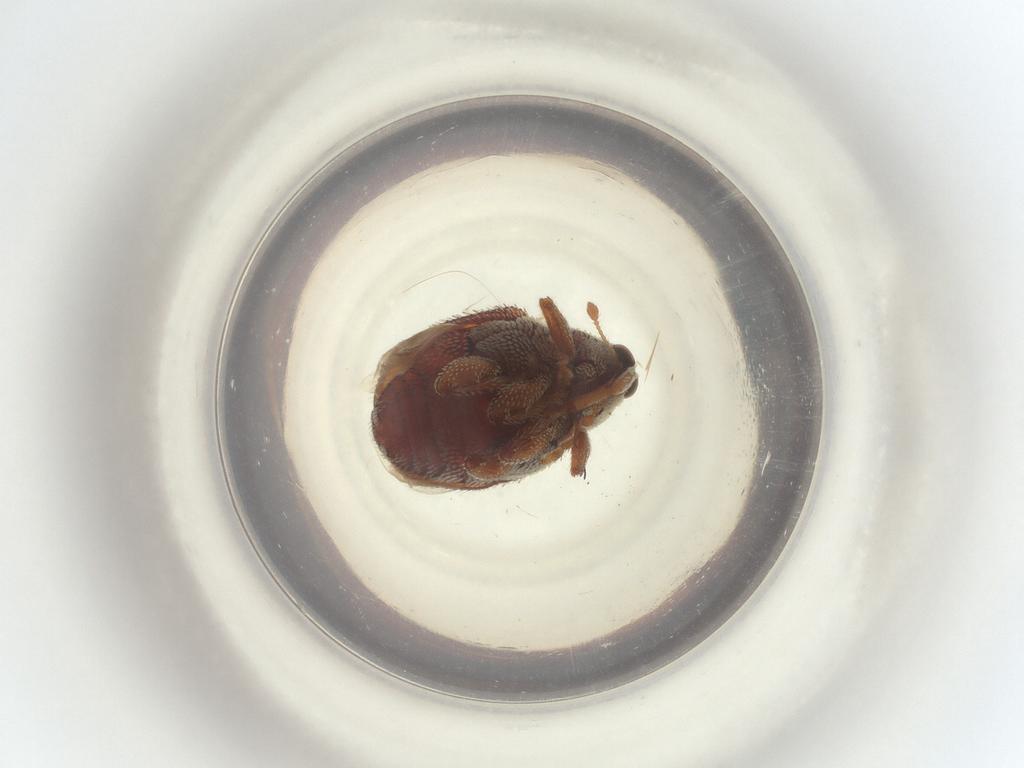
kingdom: Animalia
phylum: Arthropoda
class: Insecta
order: Coleoptera
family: Curculionidae
